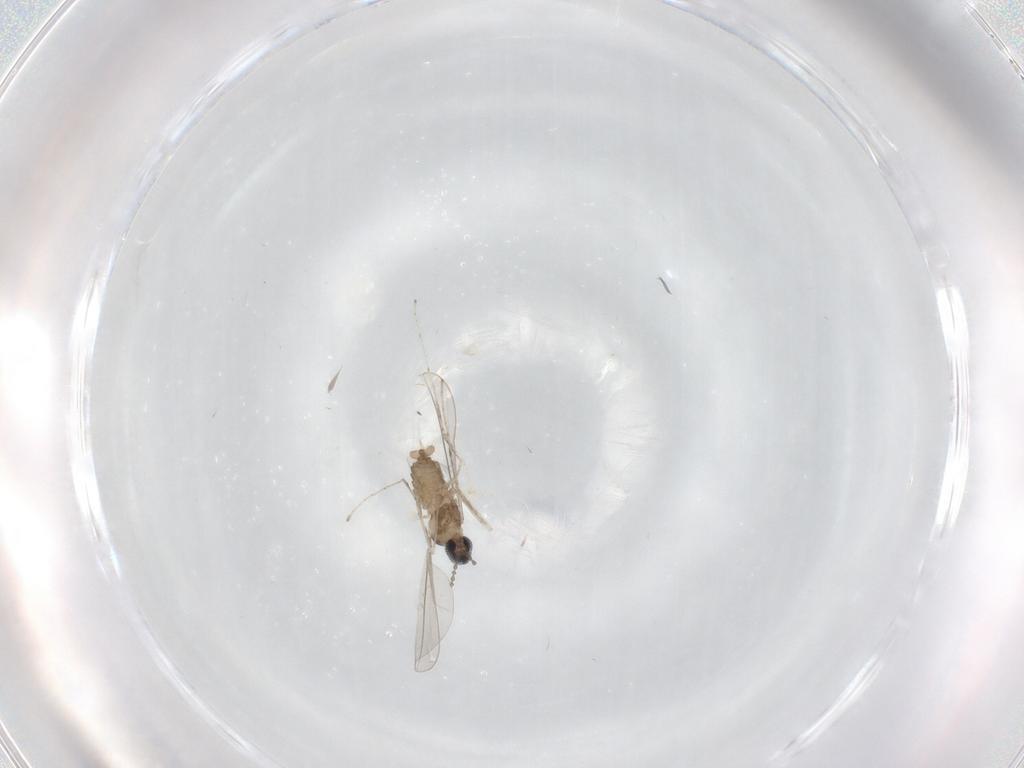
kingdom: Animalia
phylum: Arthropoda
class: Insecta
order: Diptera
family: Cecidomyiidae
